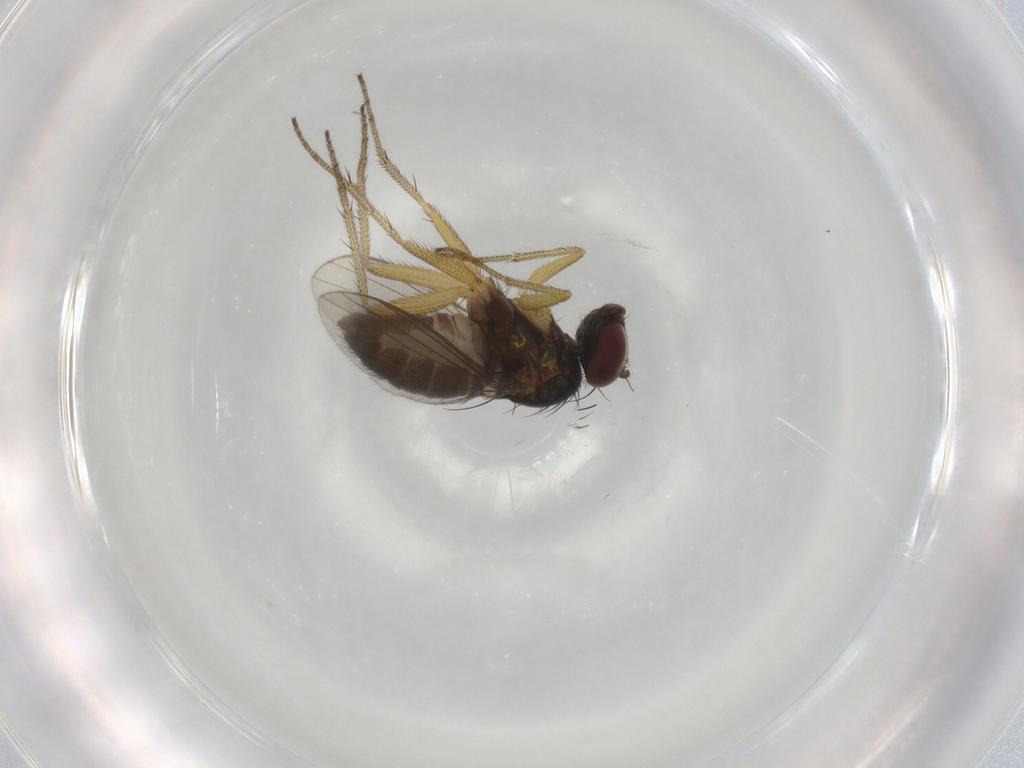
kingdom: Animalia
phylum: Arthropoda
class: Insecta
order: Diptera
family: Dolichopodidae
